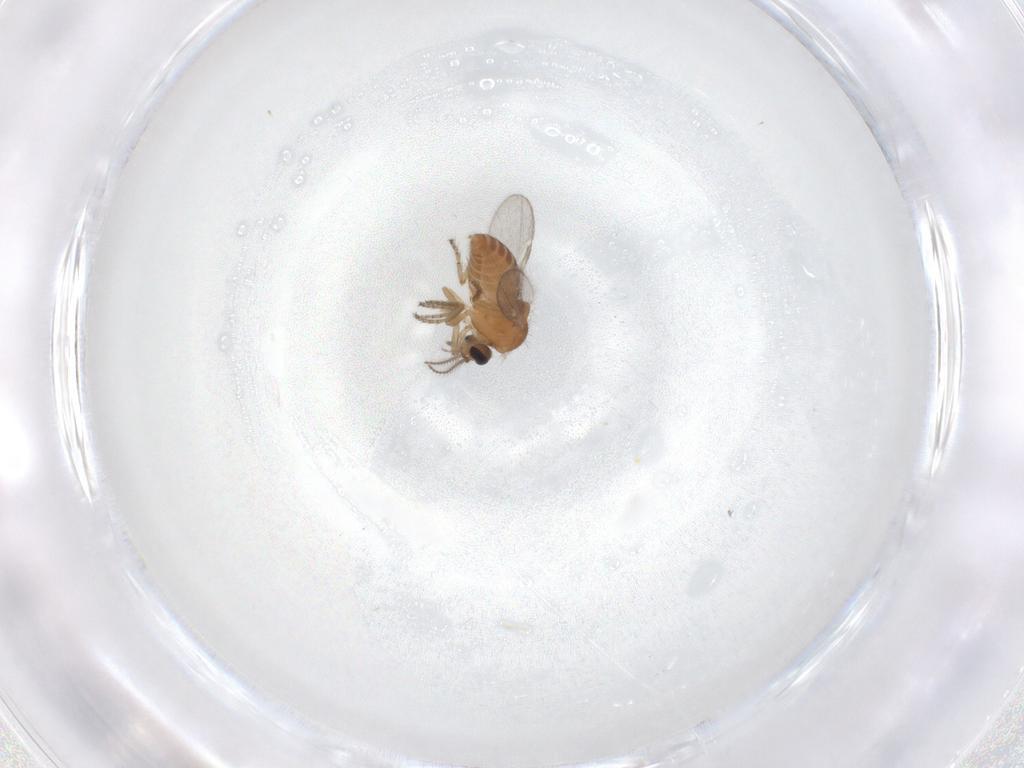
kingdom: Animalia
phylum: Arthropoda
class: Insecta
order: Diptera
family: Ceratopogonidae
